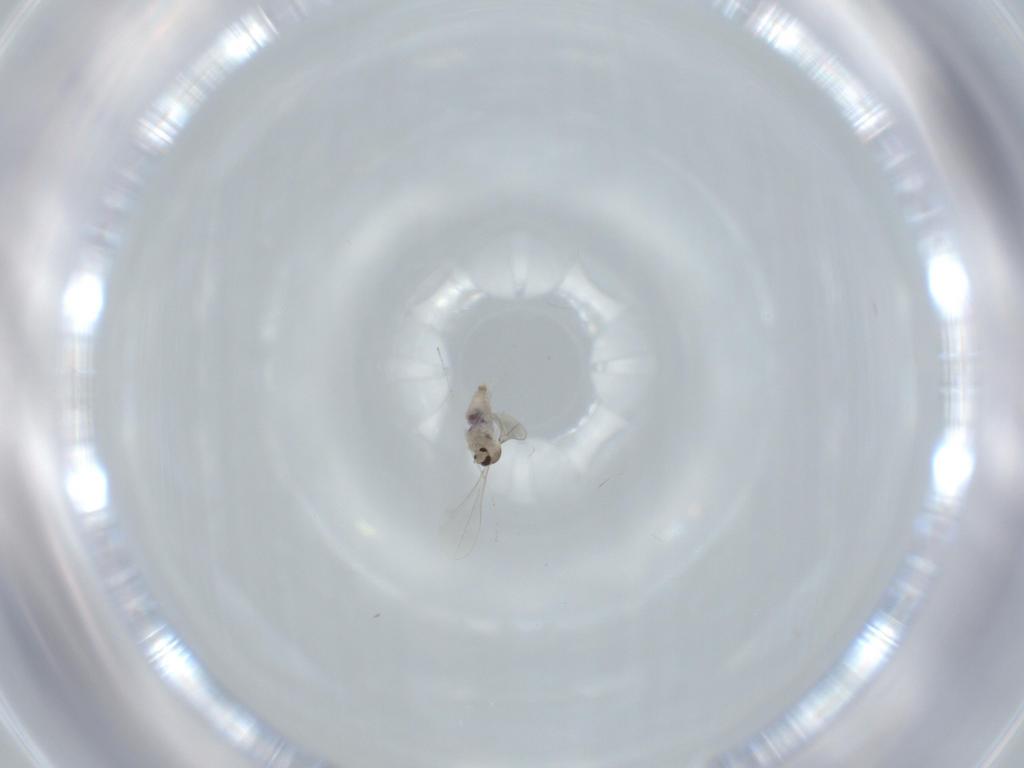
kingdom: Animalia
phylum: Arthropoda
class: Insecta
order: Diptera
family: Cecidomyiidae
